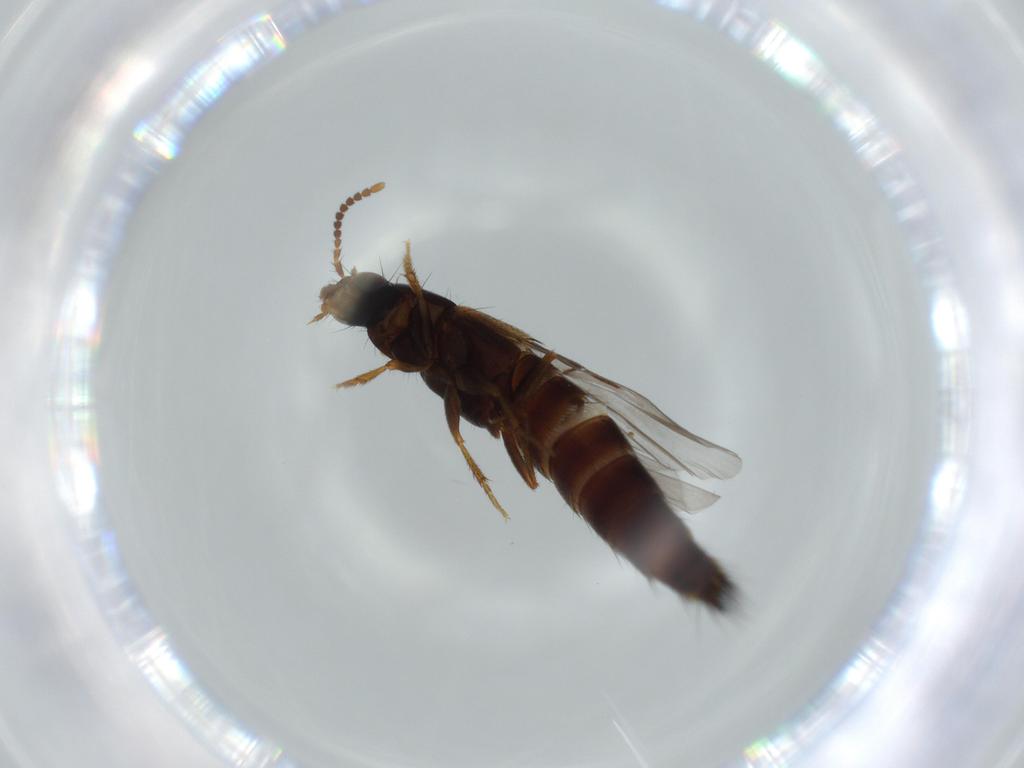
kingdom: Animalia
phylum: Arthropoda
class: Insecta
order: Coleoptera
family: Staphylinidae
